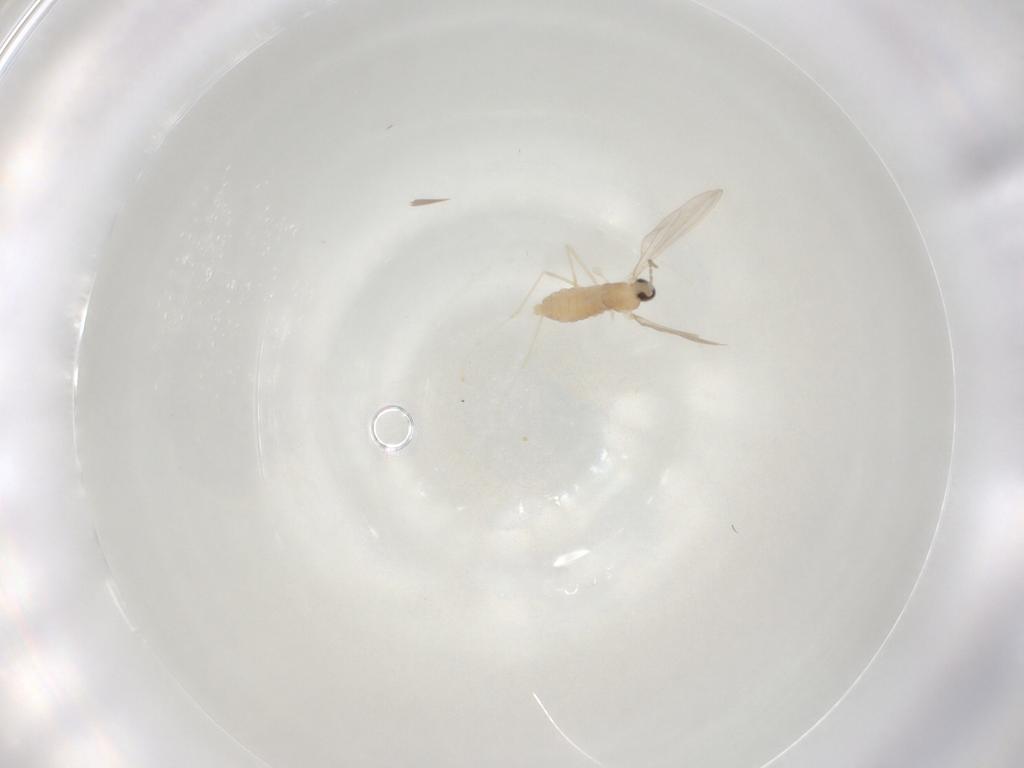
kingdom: Animalia
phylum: Arthropoda
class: Insecta
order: Diptera
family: Cecidomyiidae
